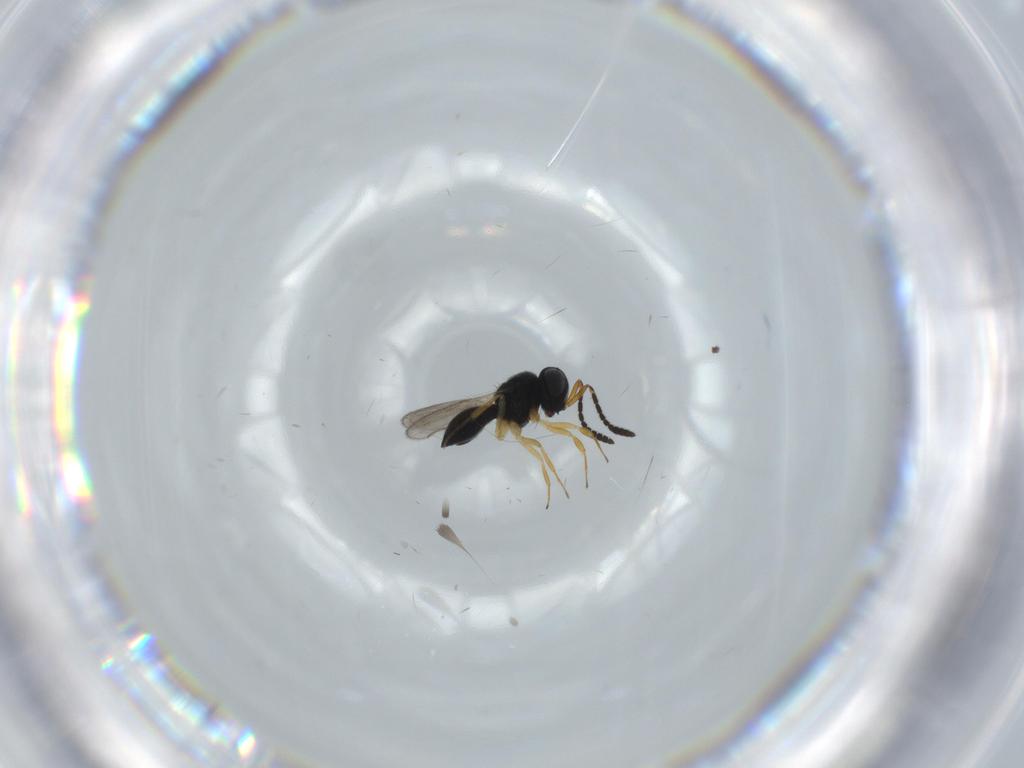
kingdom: Animalia
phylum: Arthropoda
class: Insecta
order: Hymenoptera
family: Scelionidae
